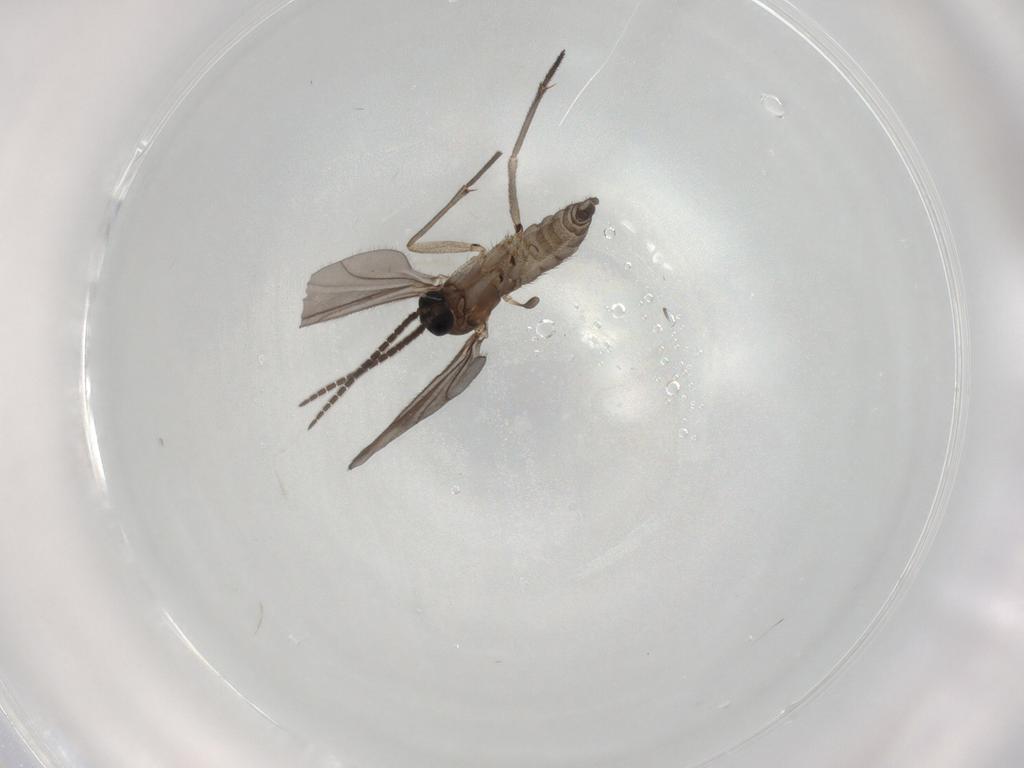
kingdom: Animalia
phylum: Arthropoda
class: Insecta
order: Diptera
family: Sciaridae
